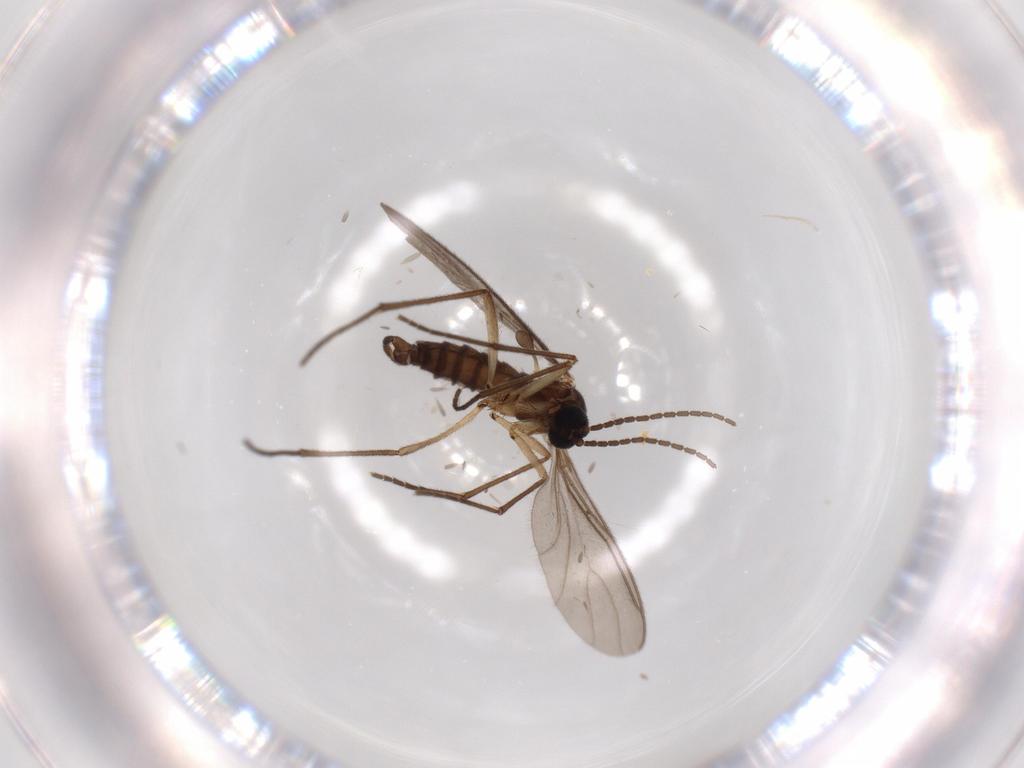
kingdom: Animalia
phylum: Arthropoda
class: Insecta
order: Diptera
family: Sciaridae
